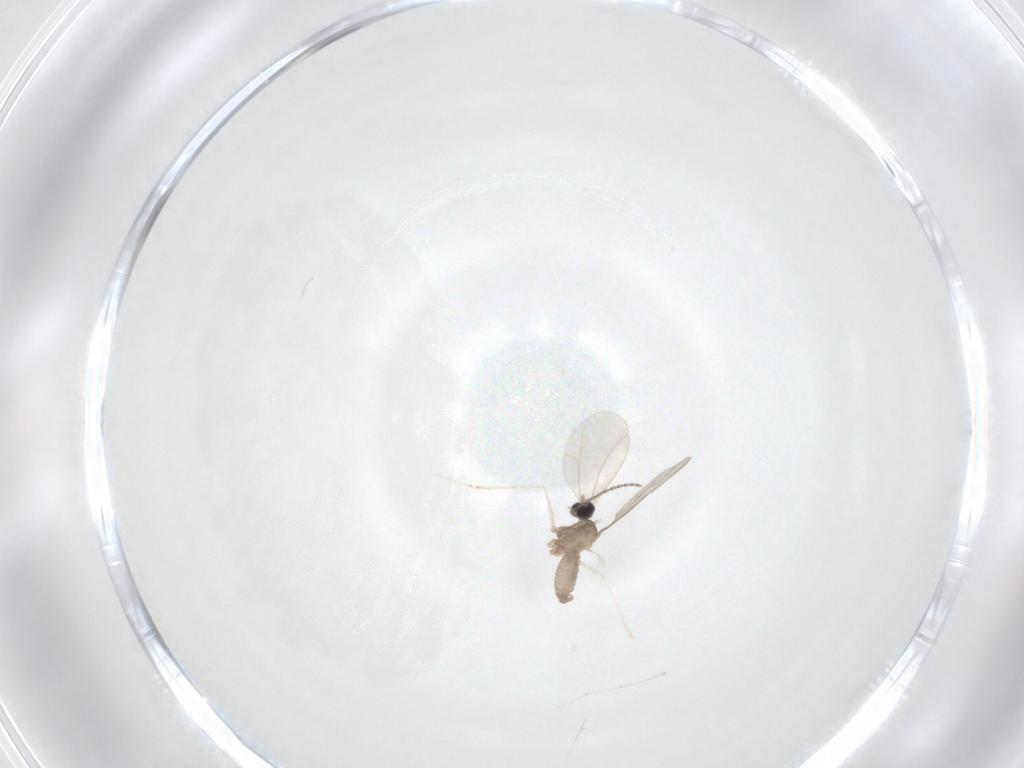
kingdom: Animalia
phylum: Arthropoda
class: Insecta
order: Diptera
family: Cecidomyiidae
